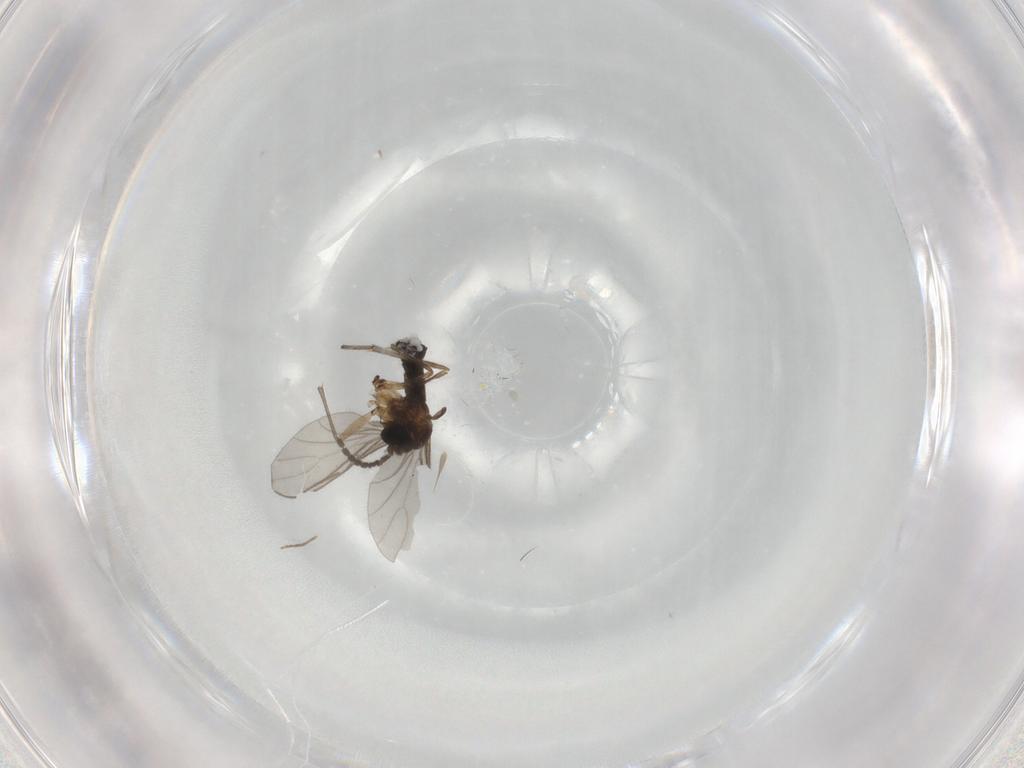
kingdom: Animalia
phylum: Arthropoda
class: Insecta
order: Diptera
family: Sciaridae
